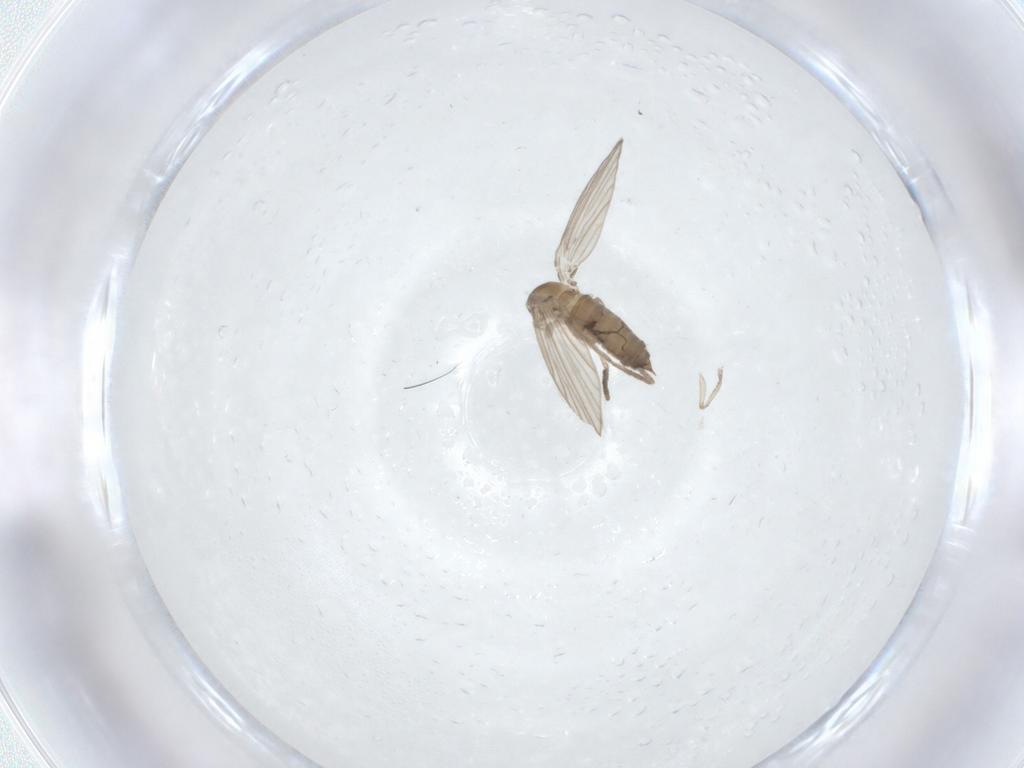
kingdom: Animalia
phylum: Arthropoda
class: Insecta
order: Diptera
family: Psychodidae
